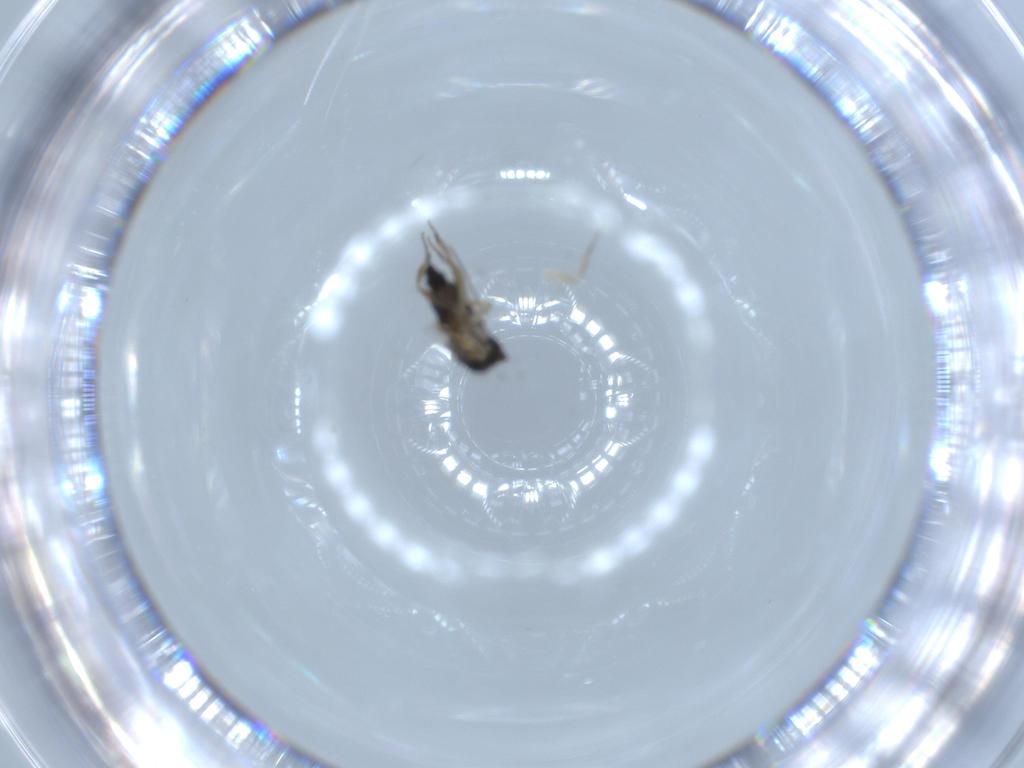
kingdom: Animalia
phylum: Arthropoda
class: Insecta
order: Diptera
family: Phoridae
